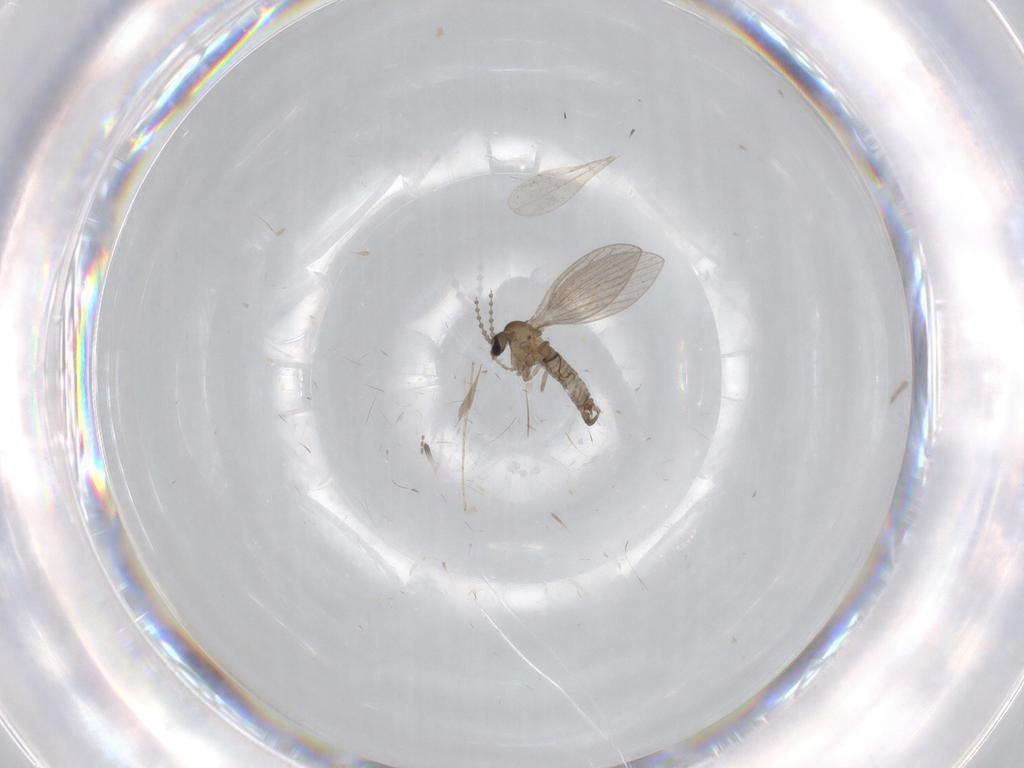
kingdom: Animalia
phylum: Arthropoda
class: Insecta
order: Diptera
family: Psychodidae
